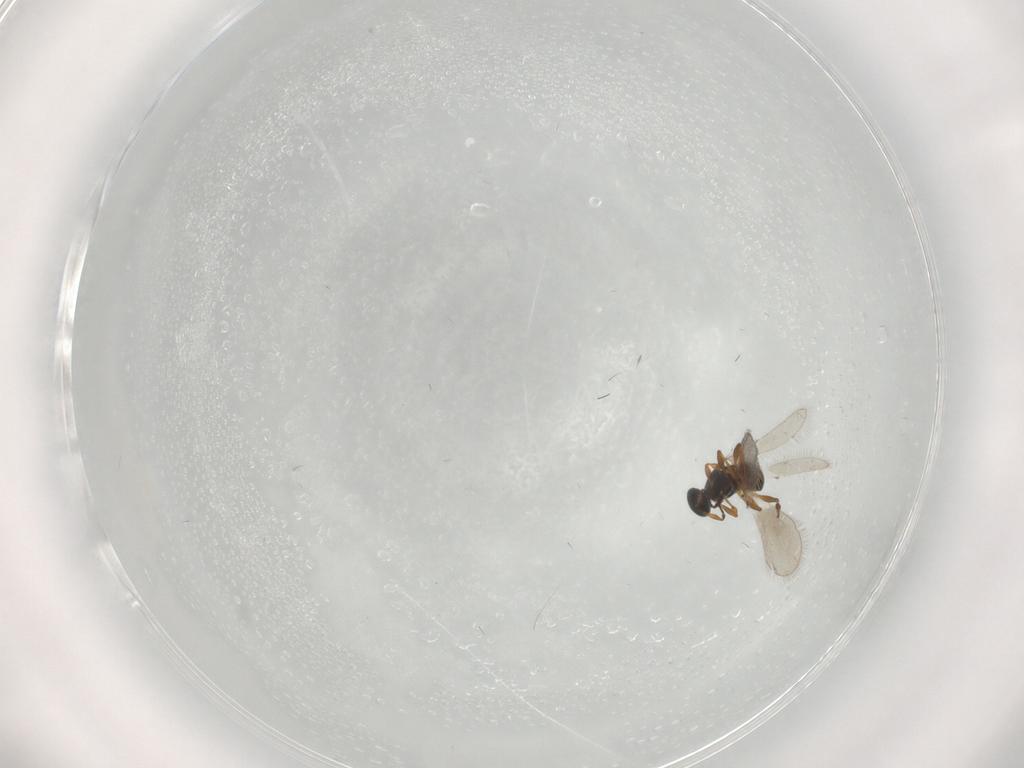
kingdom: Animalia
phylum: Arthropoda
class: Insecta
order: Hymenoptera
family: Platygastridae
